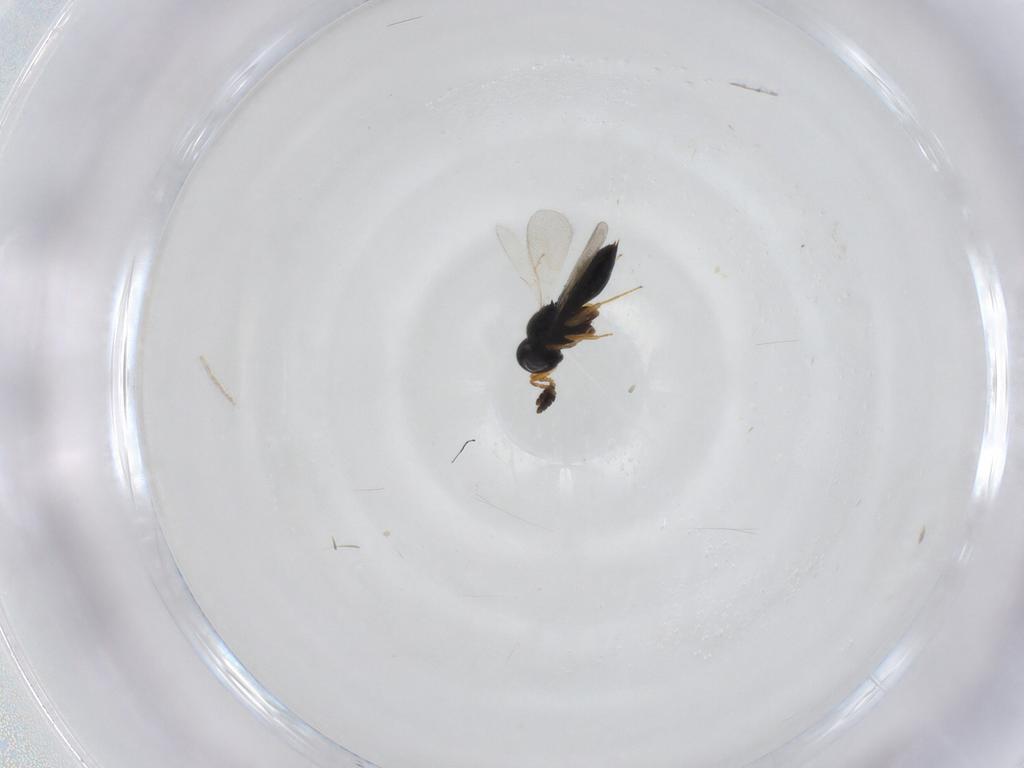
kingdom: Animalia
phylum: Arthropoda
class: Insecta
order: Hymenoptera
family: Scelionidae
